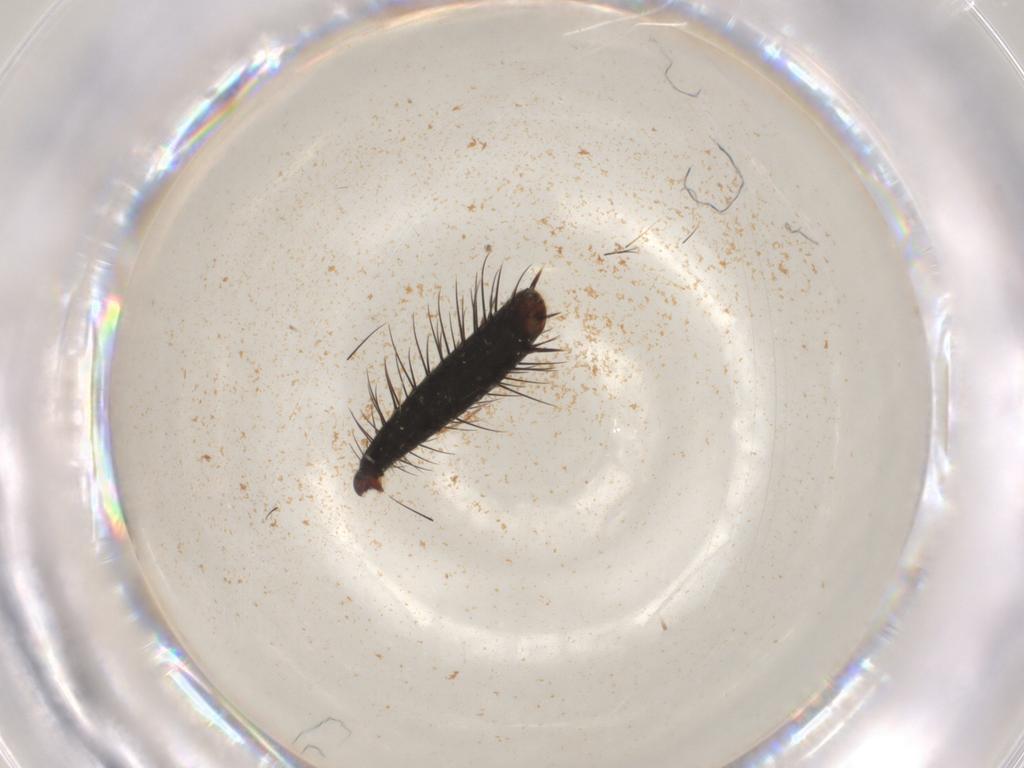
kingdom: Animalia
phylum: Arthropoda
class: Insecta
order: Hymenoptera
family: Scoliidae
